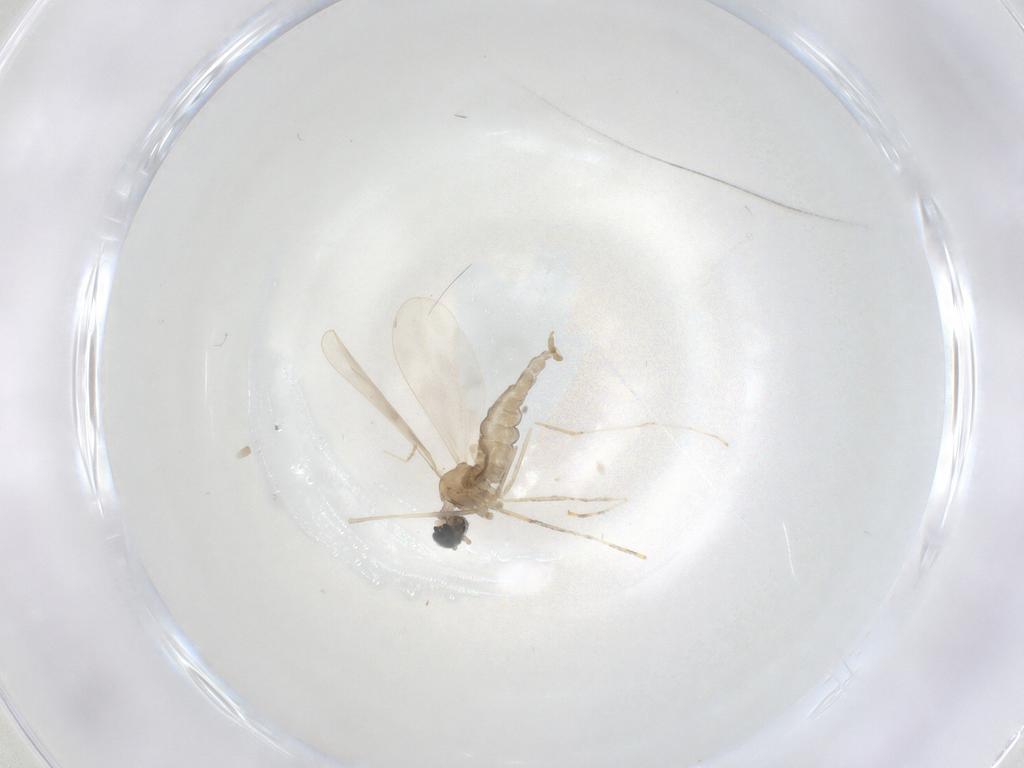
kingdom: Animalia
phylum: Arthropoda
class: Insecta
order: Diptera
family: Chironomidae
